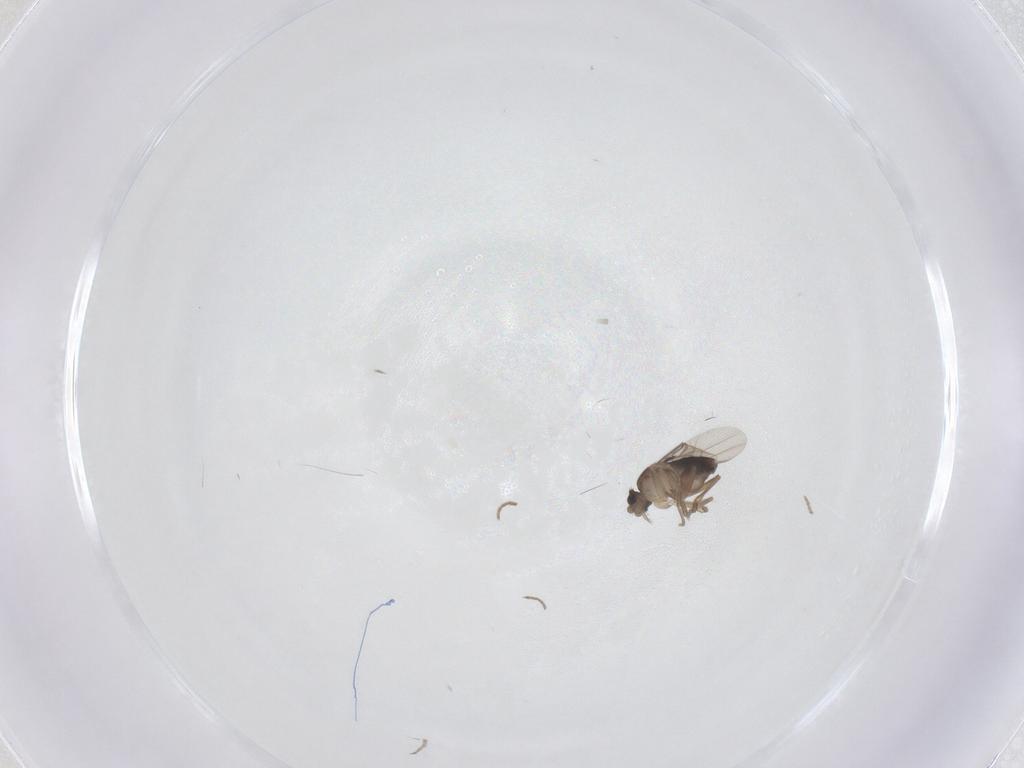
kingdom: Animalia
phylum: Arthropoda
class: Insecta
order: Diptera
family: Phoridae
